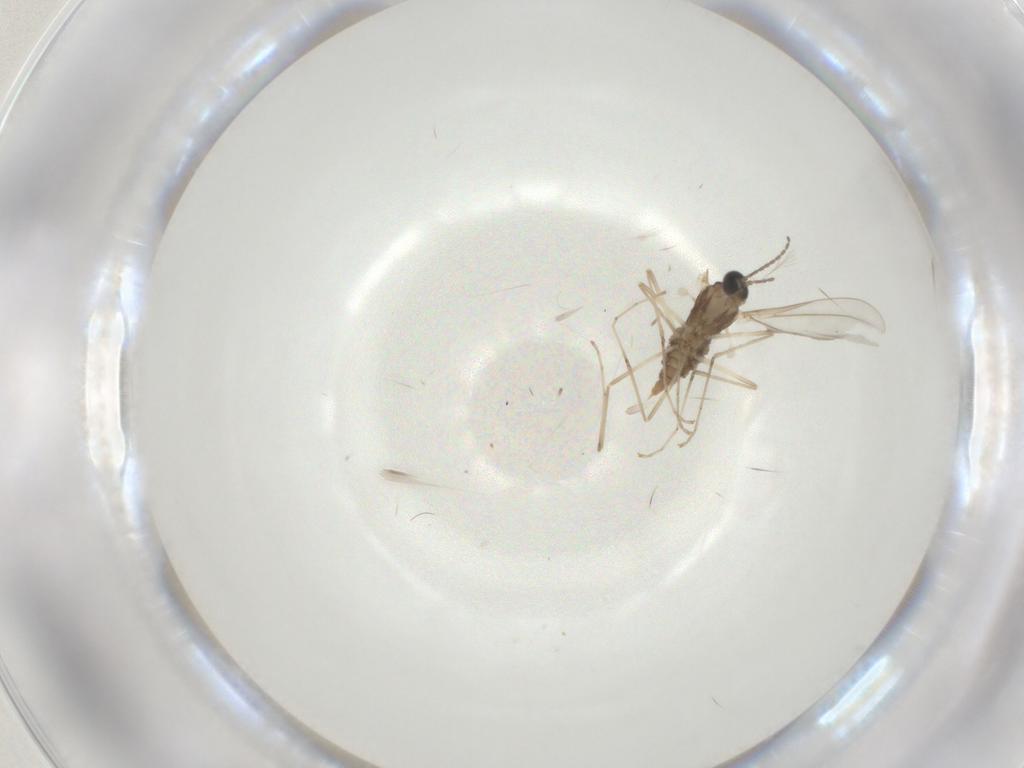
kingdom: Animalia
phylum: Arthropoda
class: Insecta
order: Diptera
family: Cecidomyiidae
